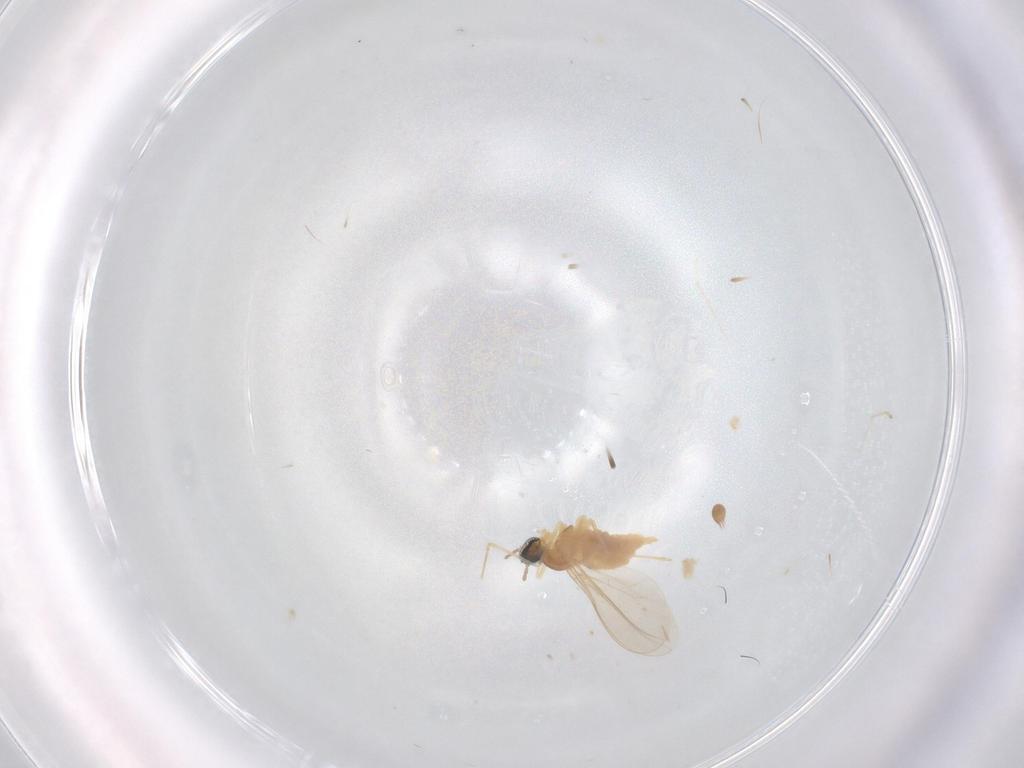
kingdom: Animalia
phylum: Arthropoda
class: Insecta
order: Diptera
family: Cecidomyiidae
